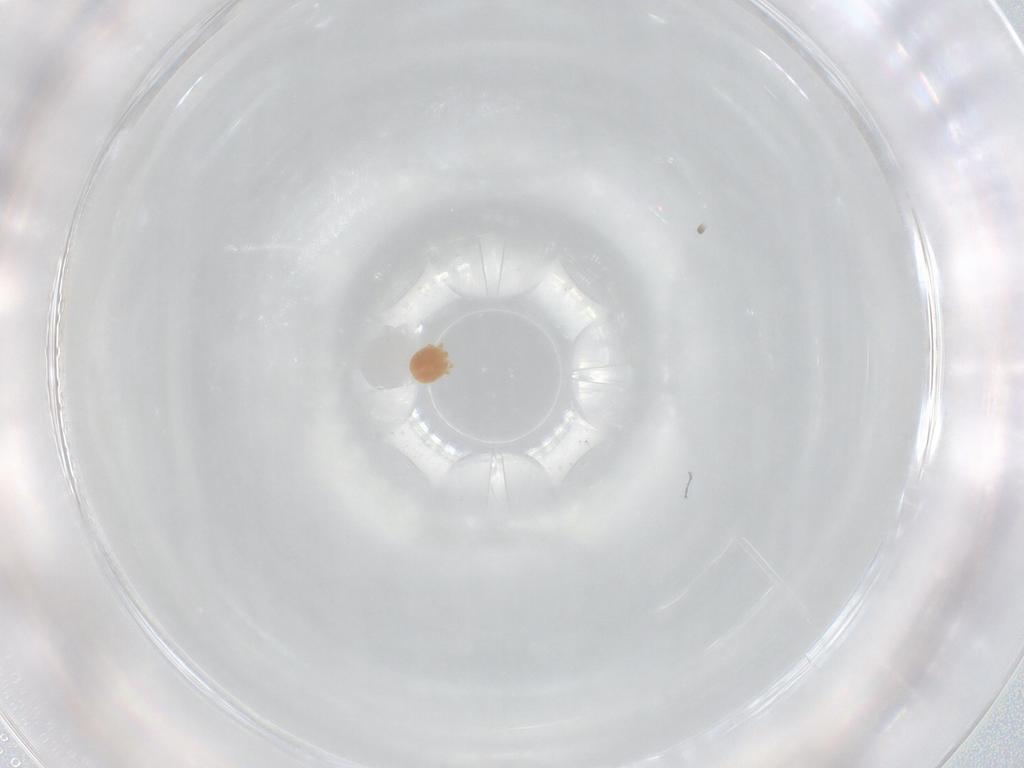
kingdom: Animalia
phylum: Arthropoda
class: Arachnida
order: Trombidiformes
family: Lebertiidae
